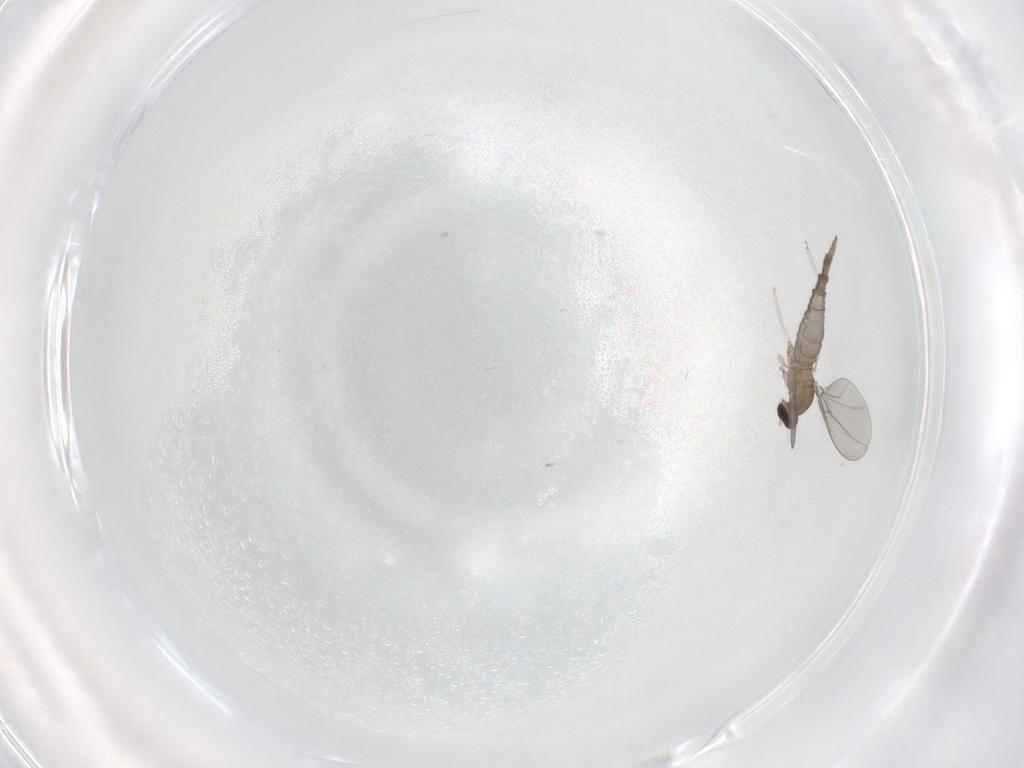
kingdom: Animalia
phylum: Arthropoda
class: Insecta
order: Diptera
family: Cecidomyiidae
